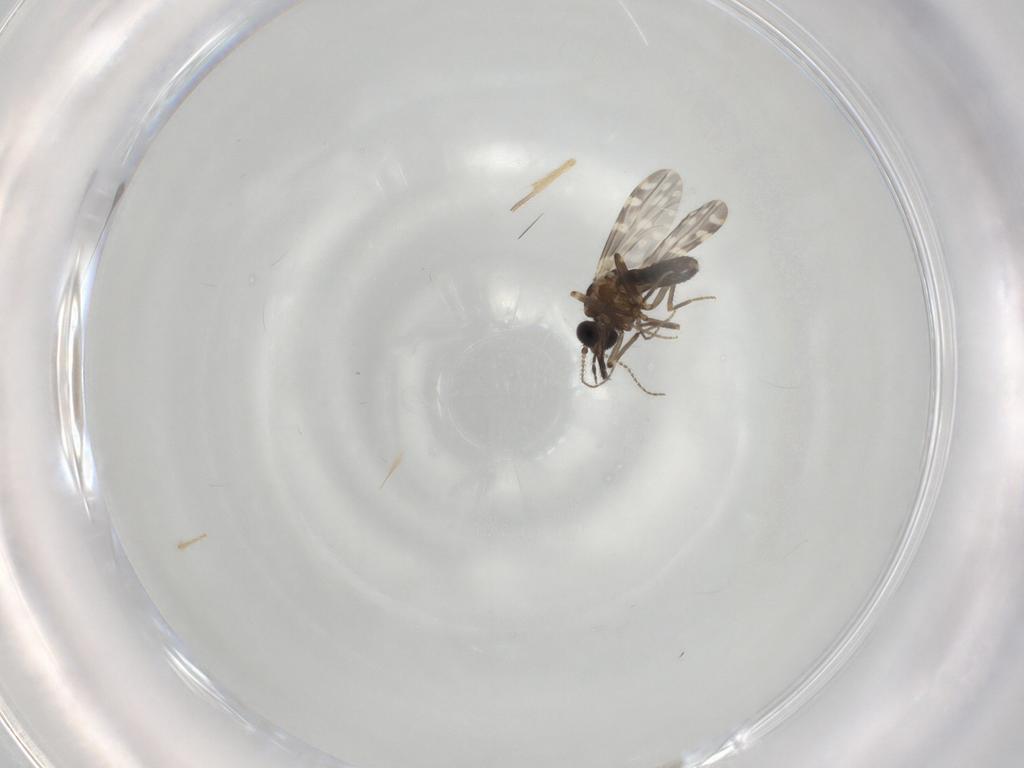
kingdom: Animalia
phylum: Arthropoda
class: Insecta
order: Diptera
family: Ceratopogonidae
